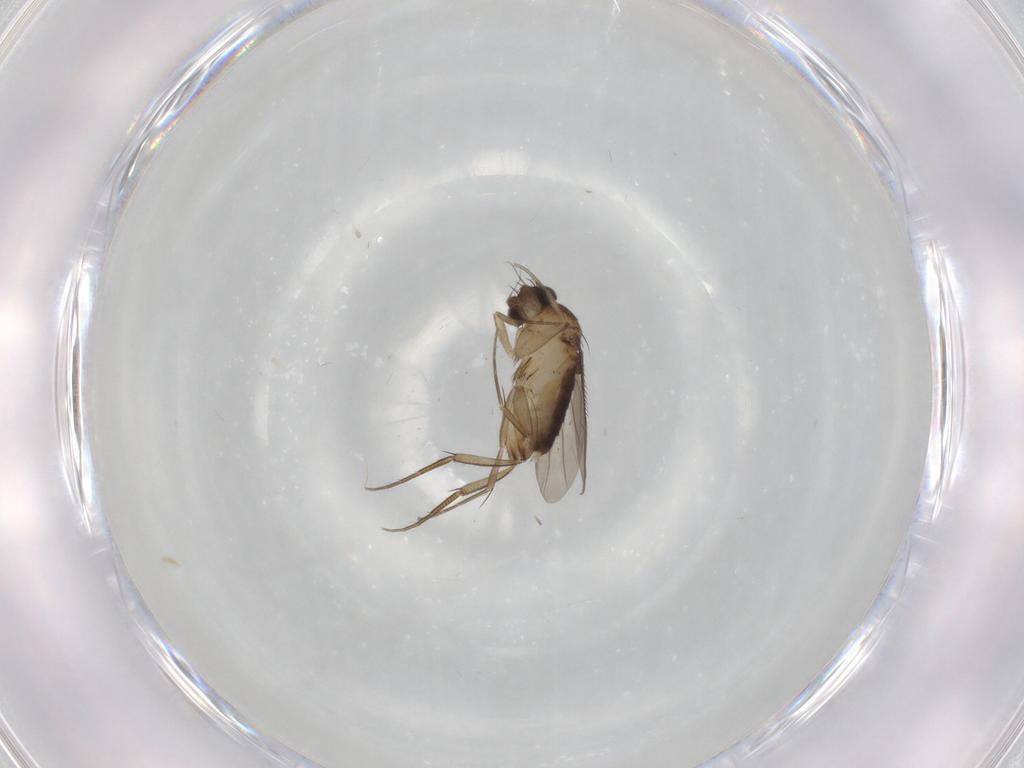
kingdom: Animalia
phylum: Arthropoda
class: Insecta
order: Diptera
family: Phoridae
